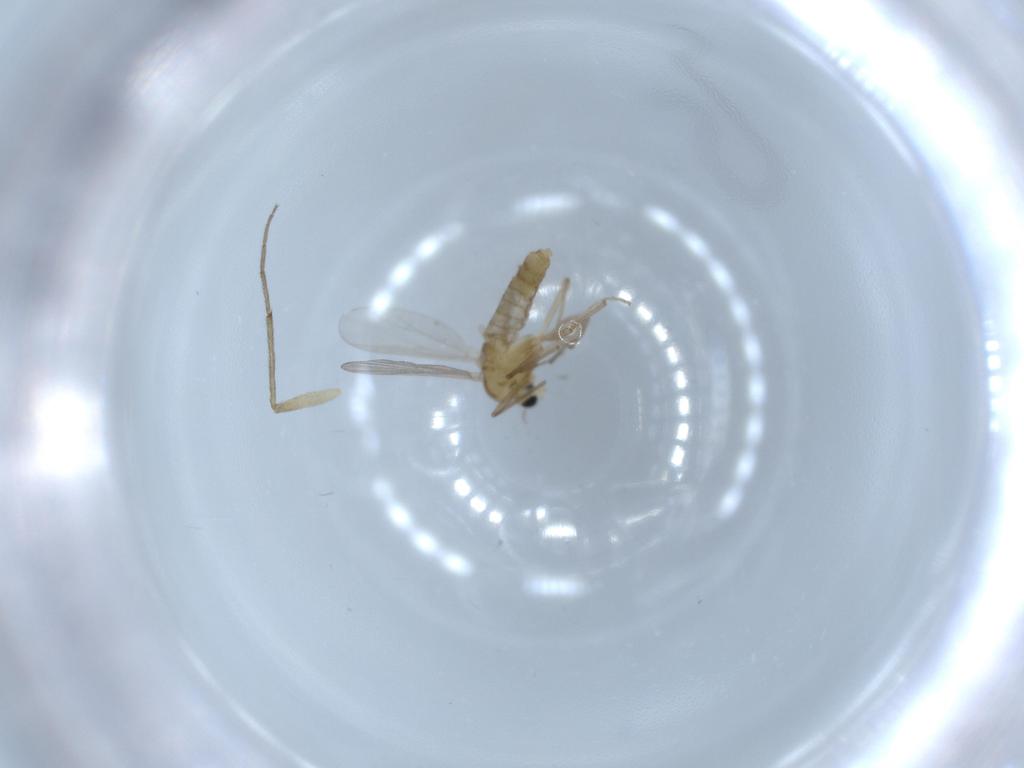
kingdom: Animalia
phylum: Arthropoda
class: Insecta
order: Diptera
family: Chironomidae
